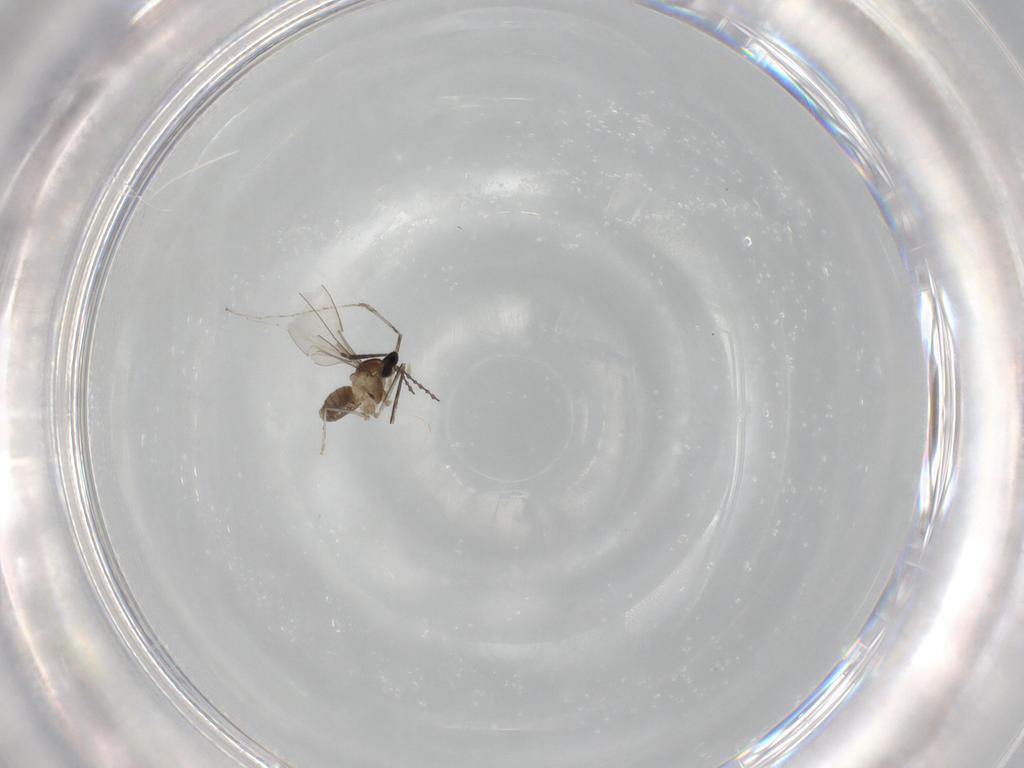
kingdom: Animalia
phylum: Arthropoda
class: Insecta
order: Diptera
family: Cecidomyiidae
